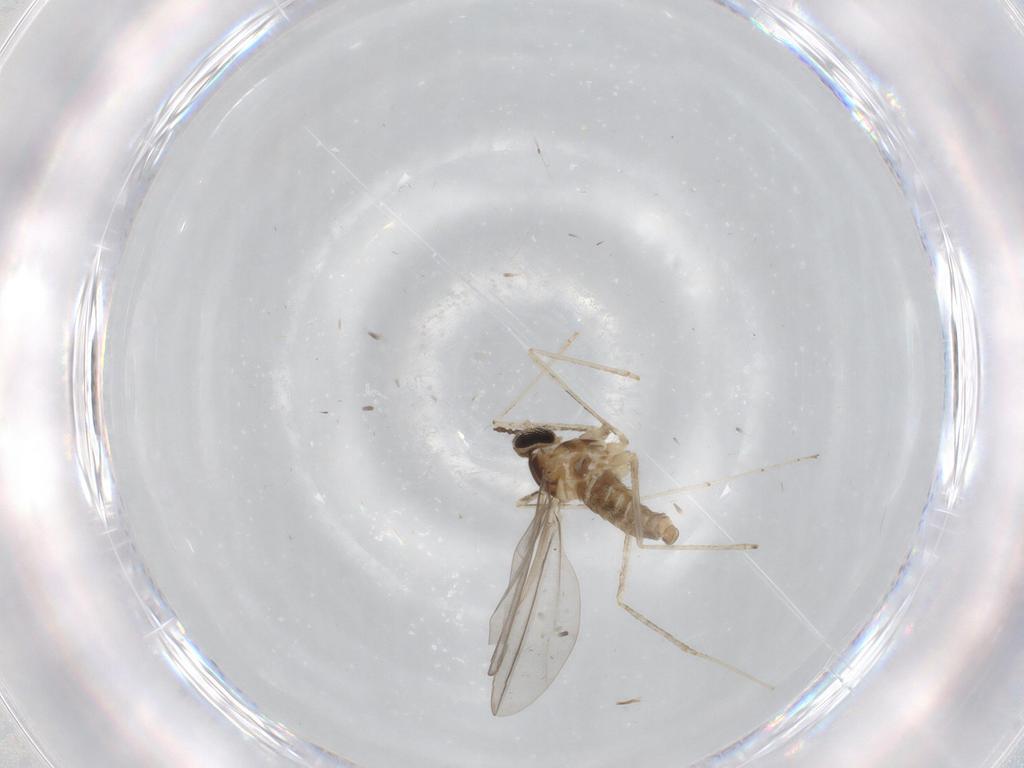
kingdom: Animalia
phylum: Arthropoda
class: Insecta
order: Diptera
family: Cecidomyiidae
